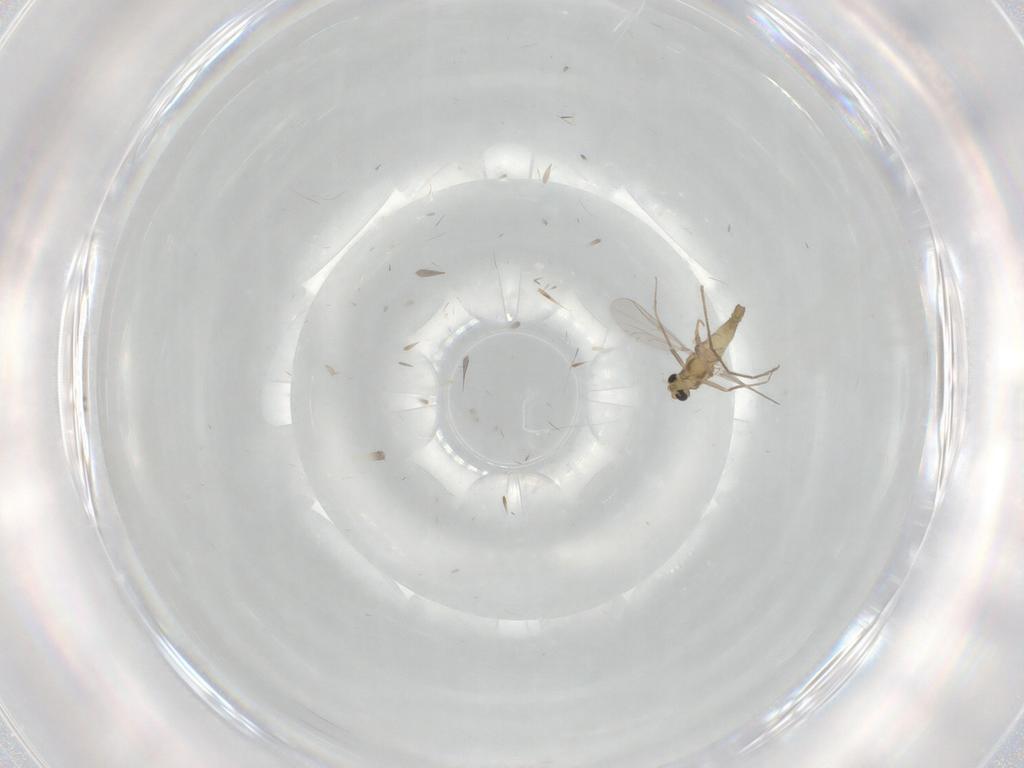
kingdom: Animalia
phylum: Arthropoda
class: Insecta
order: Diptera
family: Chironomidae
